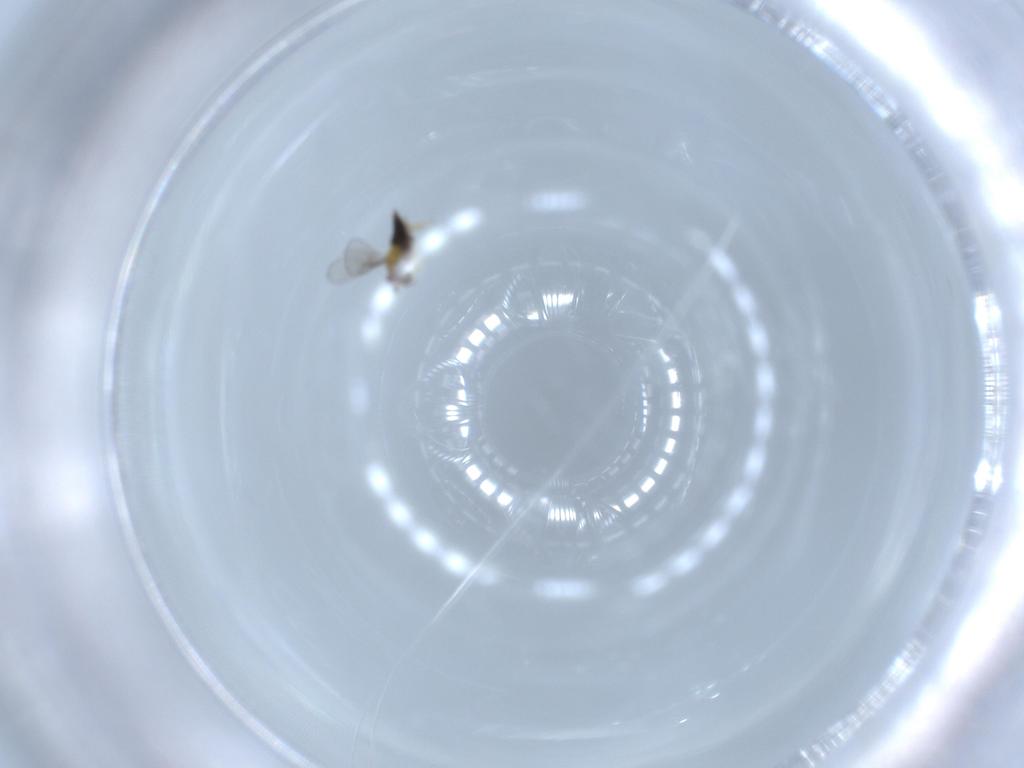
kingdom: Animalia
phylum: Arthropoda
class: Insecta
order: Hymenoptera
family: Trichogrammatidae
